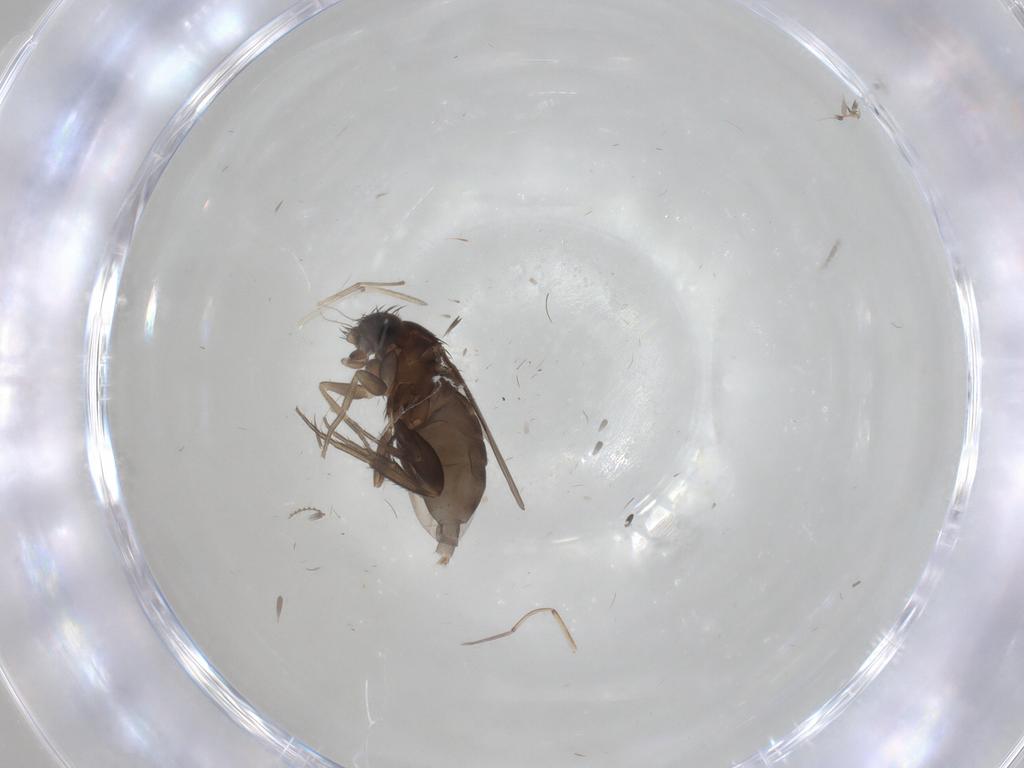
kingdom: Animalia
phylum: Arthropoda
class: Insecta
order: Diptera
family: Phoridae
